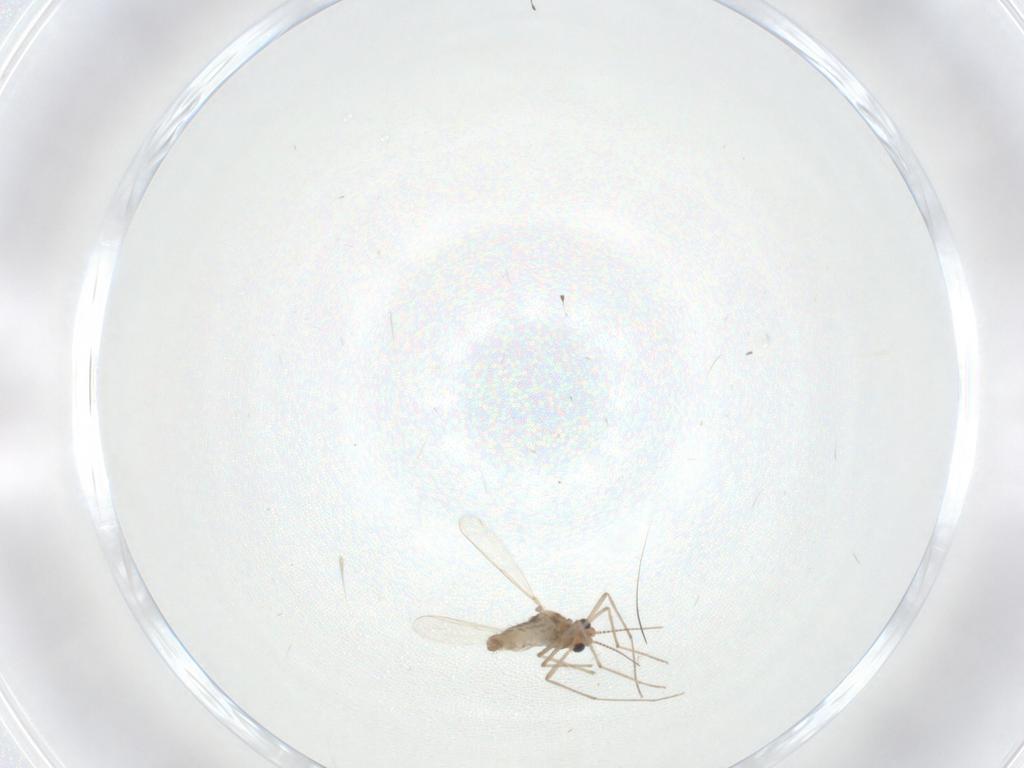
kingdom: Animalia
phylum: Arthropoda
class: Insecta
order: Diptera
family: Chironomidae
